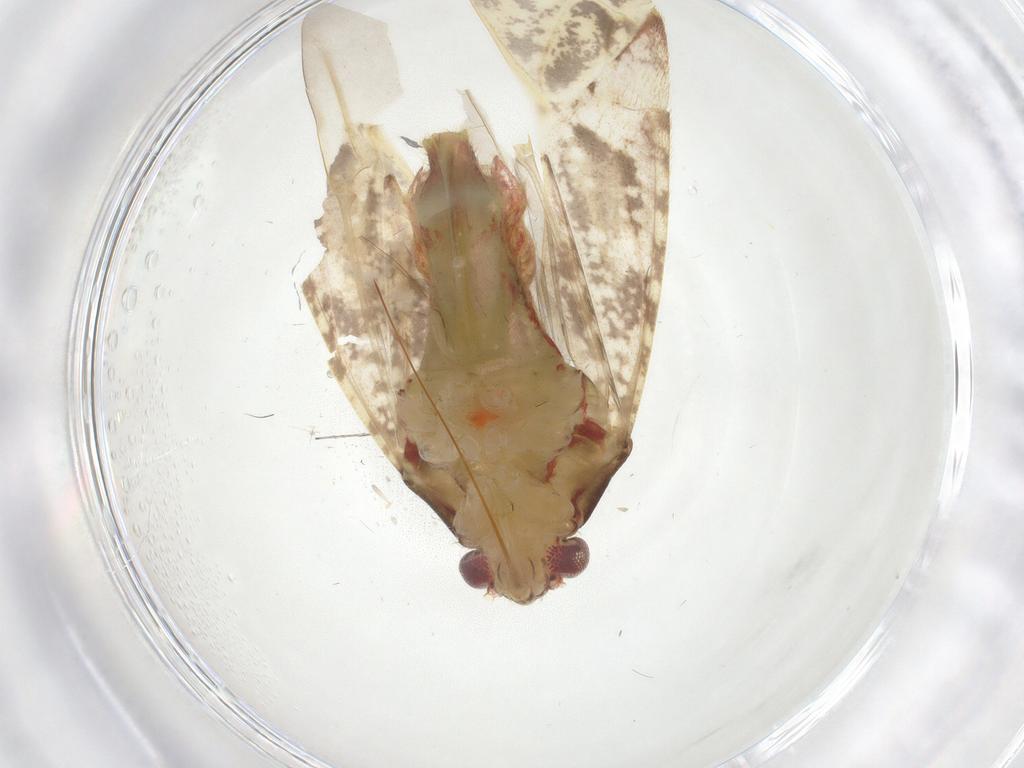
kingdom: Animalia
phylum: Arthropoda
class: Insecta
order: Hemiptera
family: Miridae
